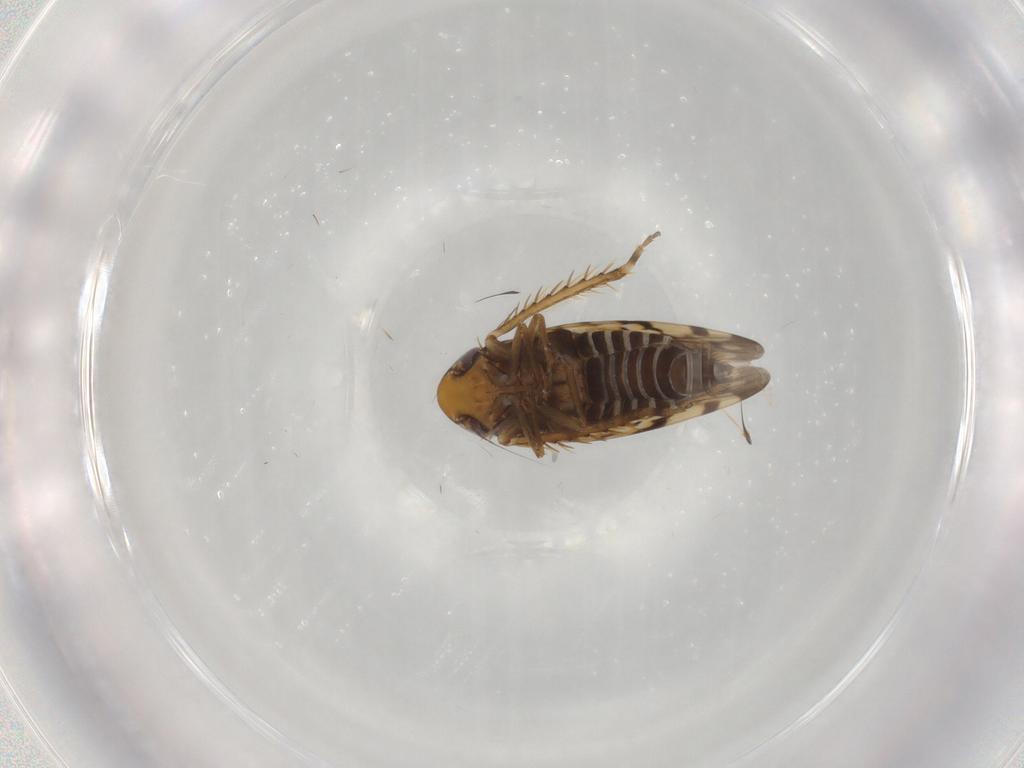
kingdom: Animalia
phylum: Arthropoda
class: Insecta
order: Hemiptera
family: Cicadellidae
